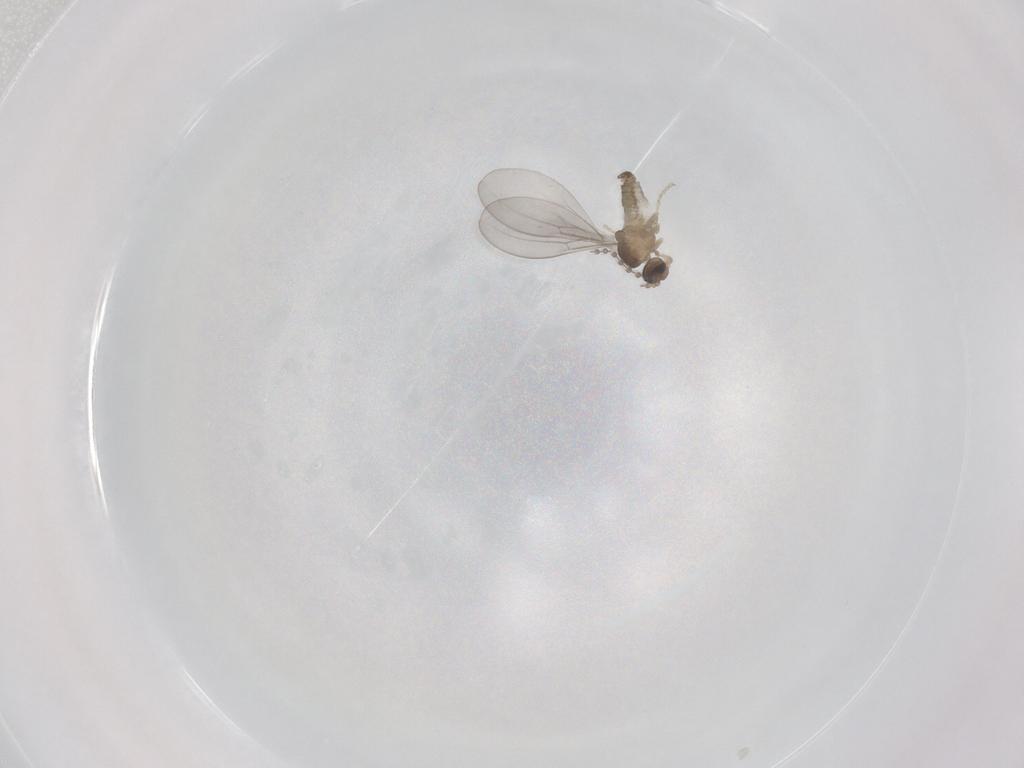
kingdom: Animalia
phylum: Arthropoda
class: Insecta
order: Diptera
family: Cecidomyiidae
